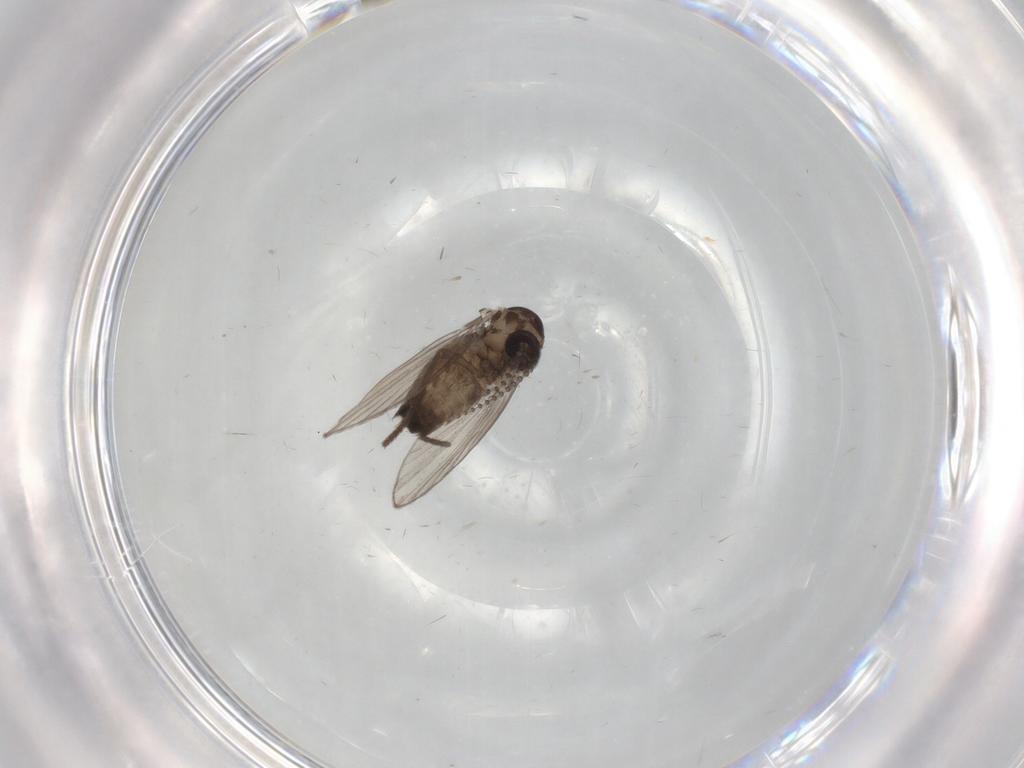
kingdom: Animalia
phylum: Arthropoda
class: Insecta
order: Diptera
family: Psychodidae
